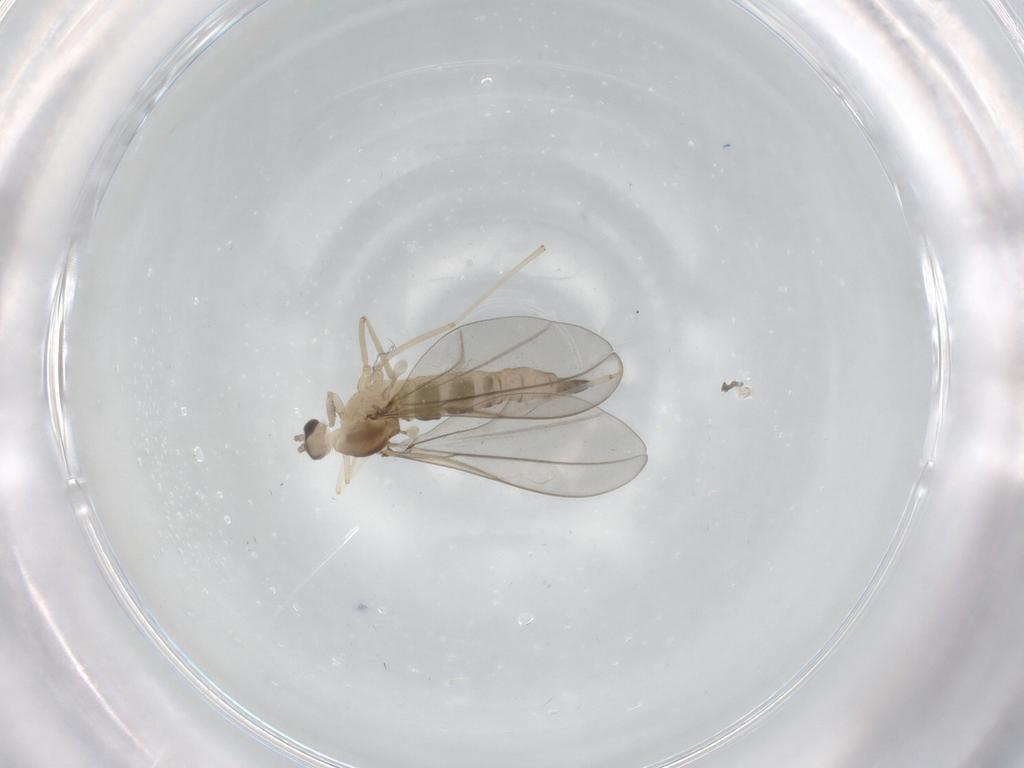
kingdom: Animalia
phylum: Arthropoda
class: Insecta
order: Diptera
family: Cecidomyiidae
